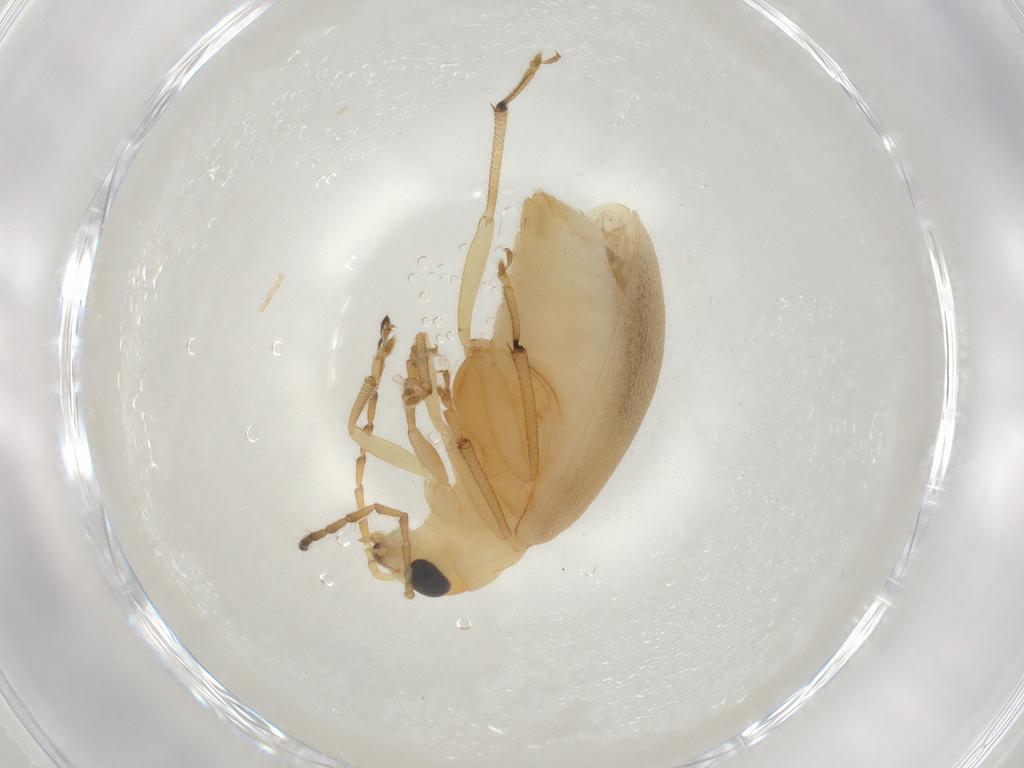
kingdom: Animalia
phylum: Arthropoda
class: Insecta
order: Coleoptera
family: Chrysomelidae
